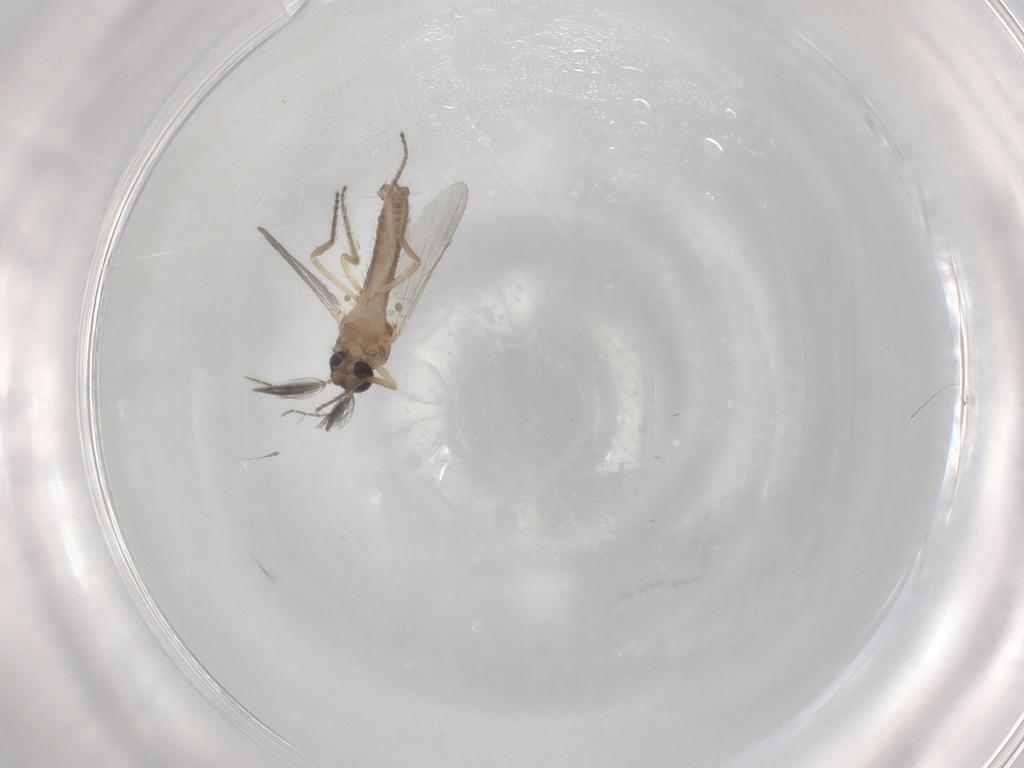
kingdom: Animalia
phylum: Arthropoda
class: Insecta
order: Diptera
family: Ceratopogonidae
